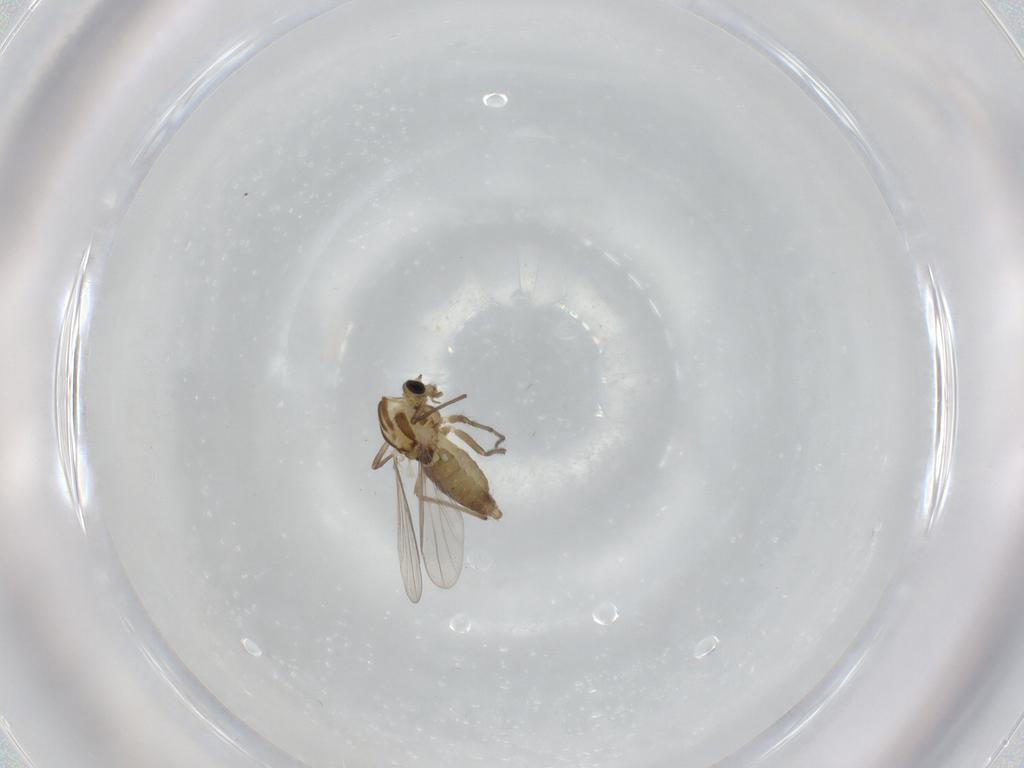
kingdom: Animalia
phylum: Arthropoda
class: Insecta
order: Diptera
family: Chironomidae
